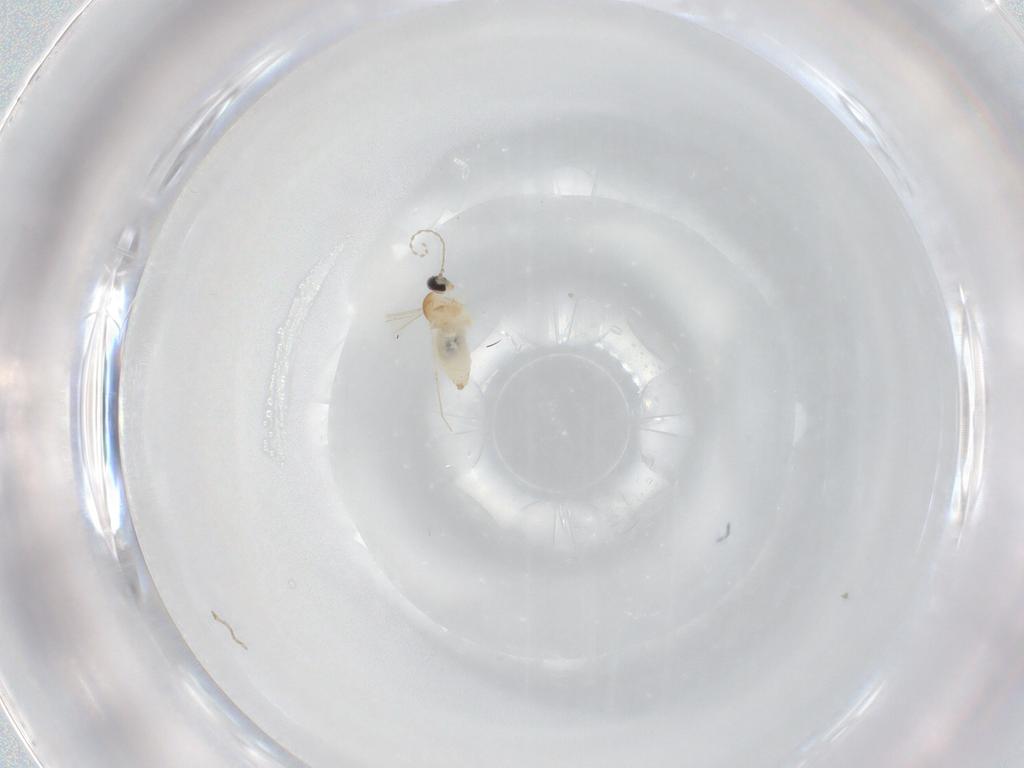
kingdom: Animalia
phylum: Arthropoda
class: Insecta
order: Diptera
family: Cecidomyiidae
